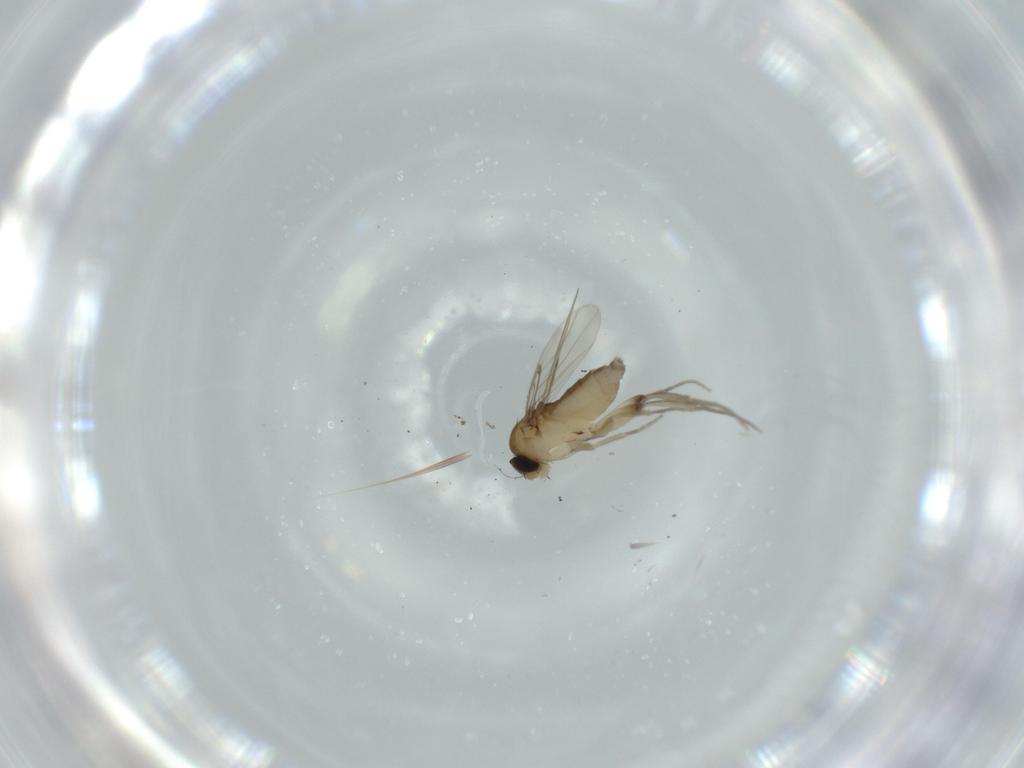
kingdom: Animalia
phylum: Arthropoda
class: Insecta
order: Diptera
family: Phoridae
